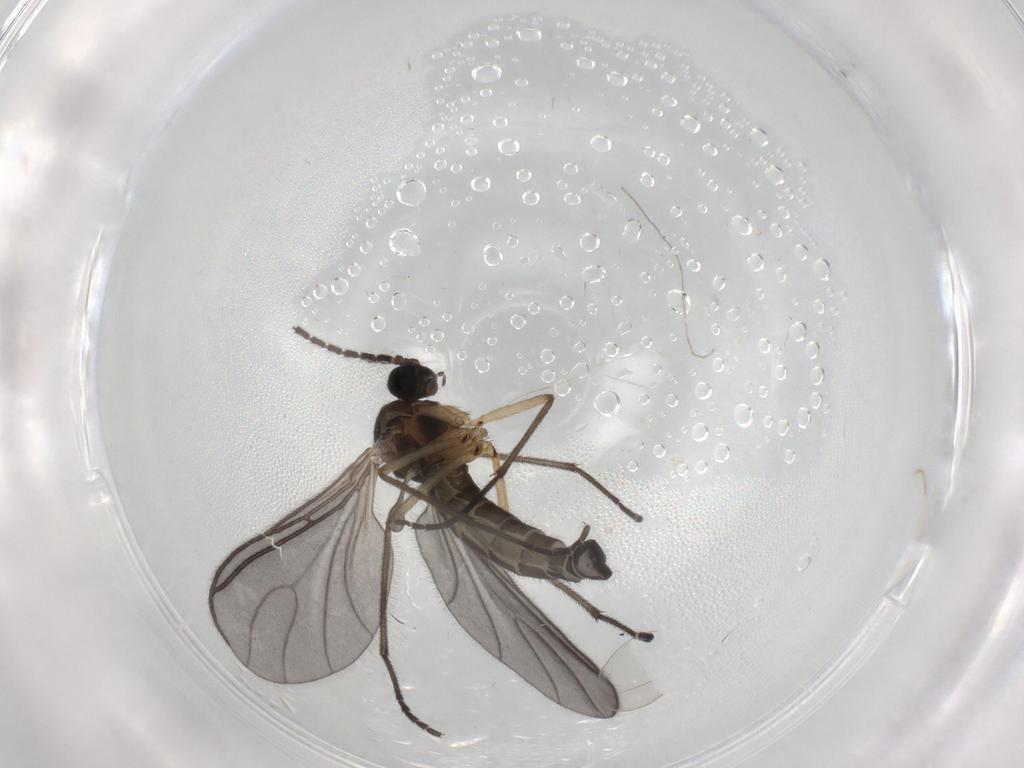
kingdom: Animalia
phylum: Arthropoda
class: Insecta
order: Diptera
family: Sciaridae
